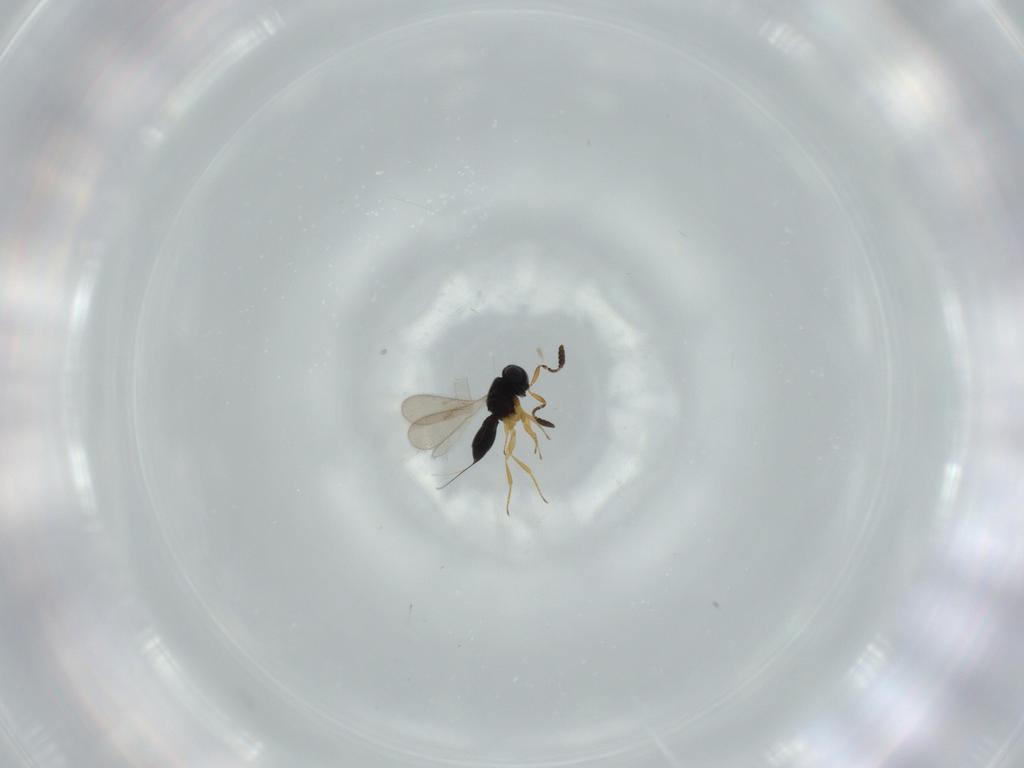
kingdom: Animalia
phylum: Arthropoda
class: Insecta
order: Hymenoptera
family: Scelionidae
